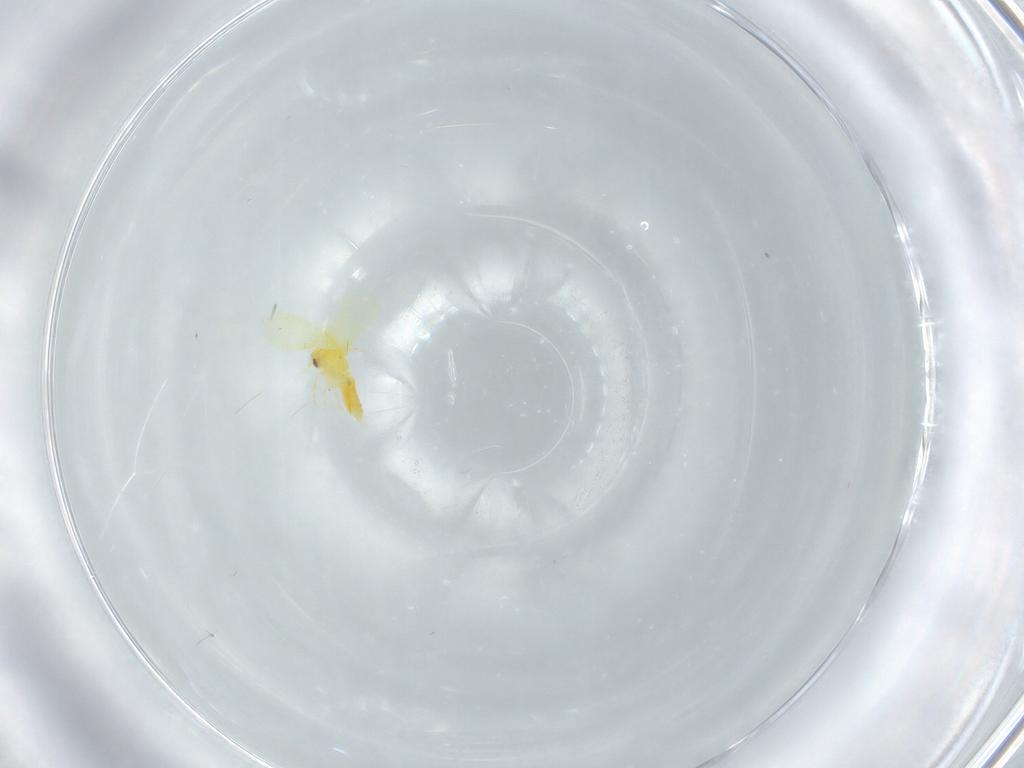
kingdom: Animalia
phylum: Arthropoda
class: Insecta
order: Hemiptera
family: Aleyrodidae
